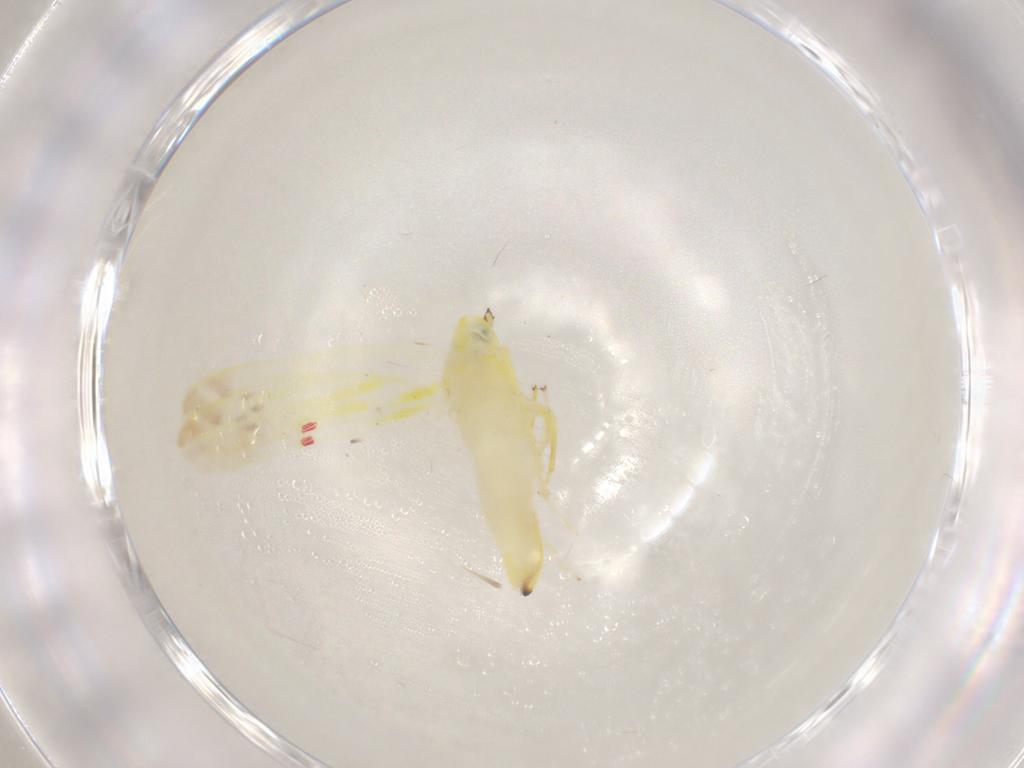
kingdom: Animalia
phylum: Arthropoda
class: Insecta
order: Hemiptera
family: Cicadellidae
